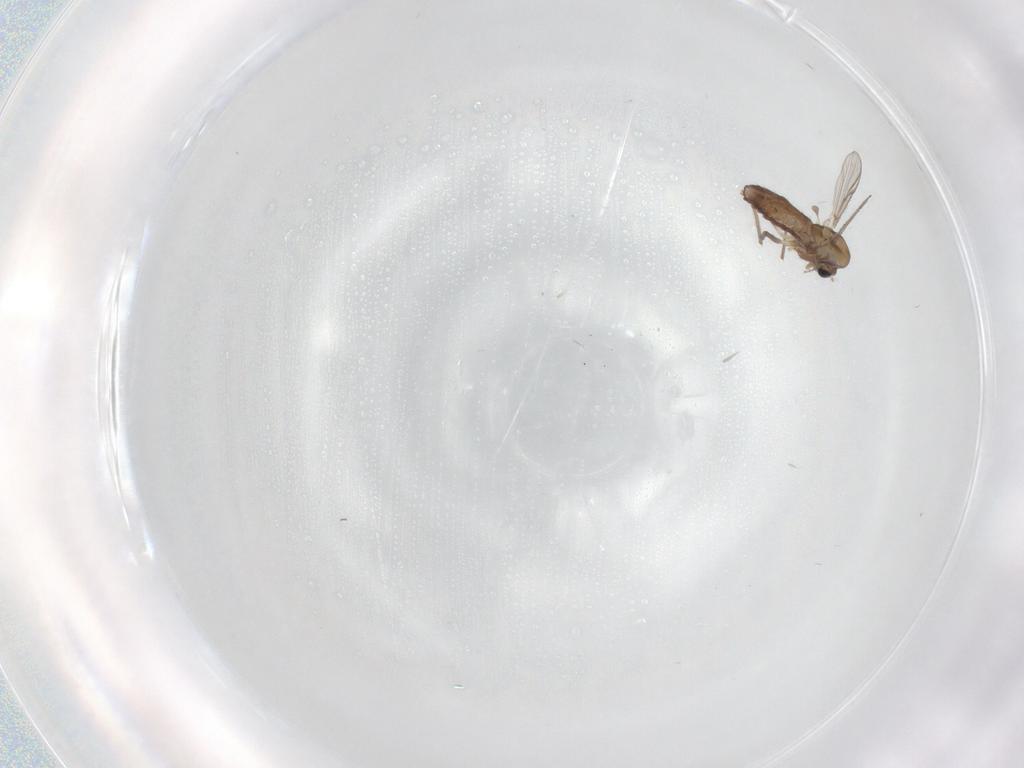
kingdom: Animalia
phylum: Arthropoda
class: Insecta
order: Diptera
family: Chironomidae
